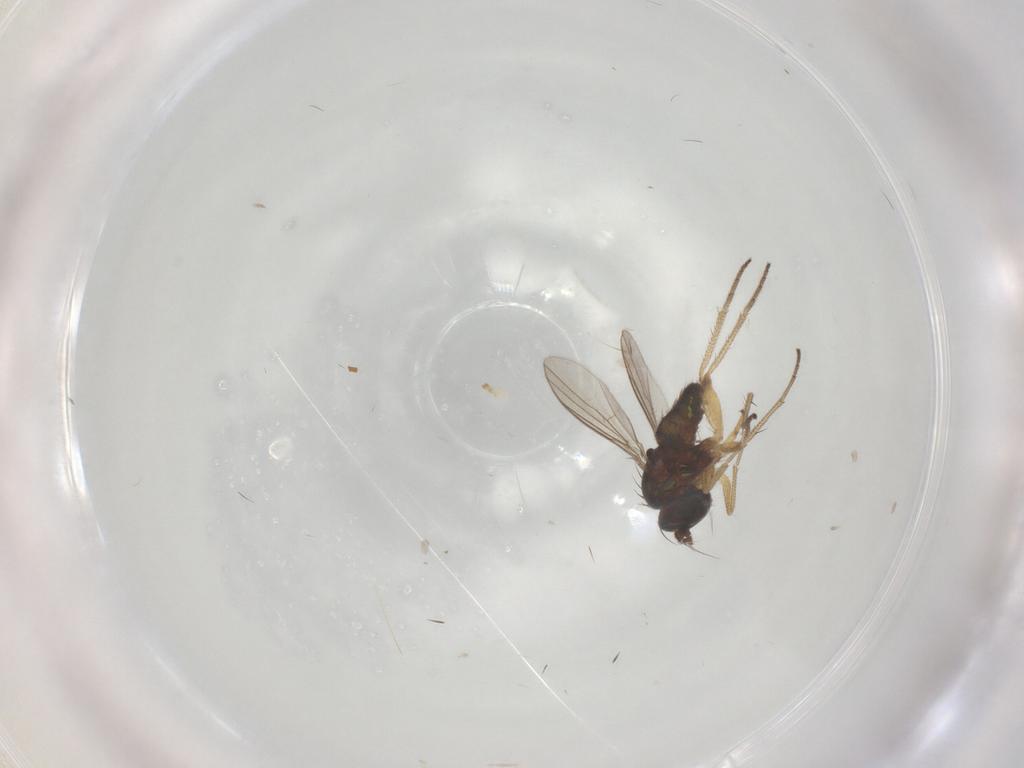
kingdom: Animalia
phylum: Arthropoda
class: Insecta
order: Diptera
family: Dolichopodidae
